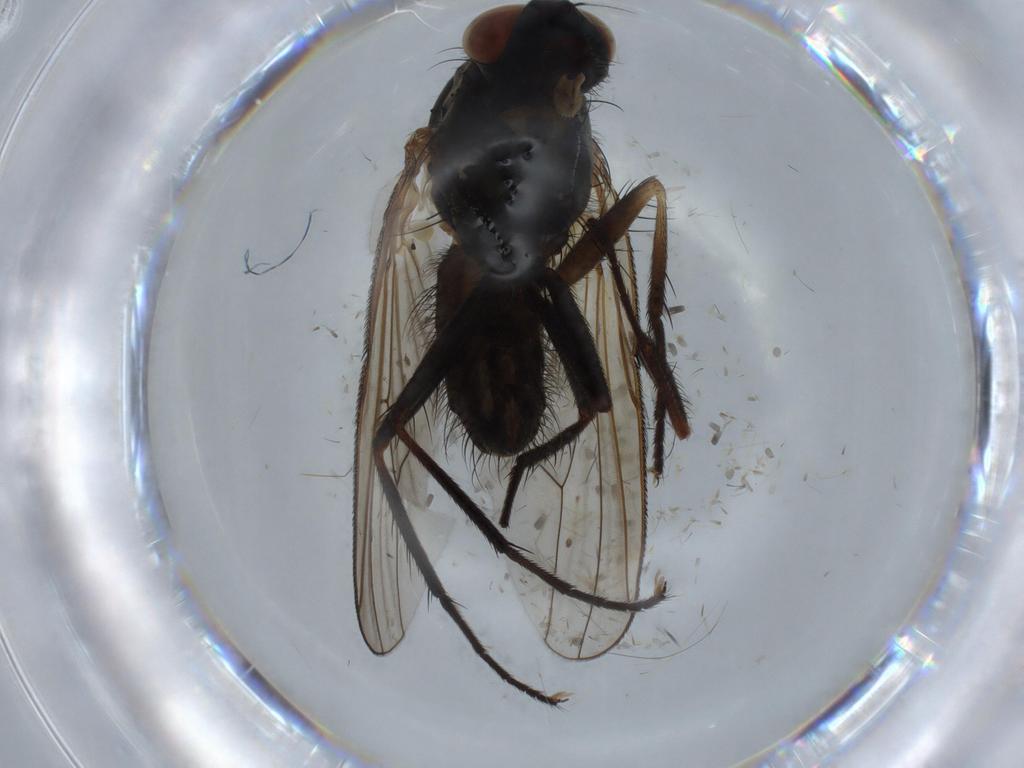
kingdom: Animalia
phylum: Arthropoda
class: Insecta
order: Diptera
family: Anthomyiidae
